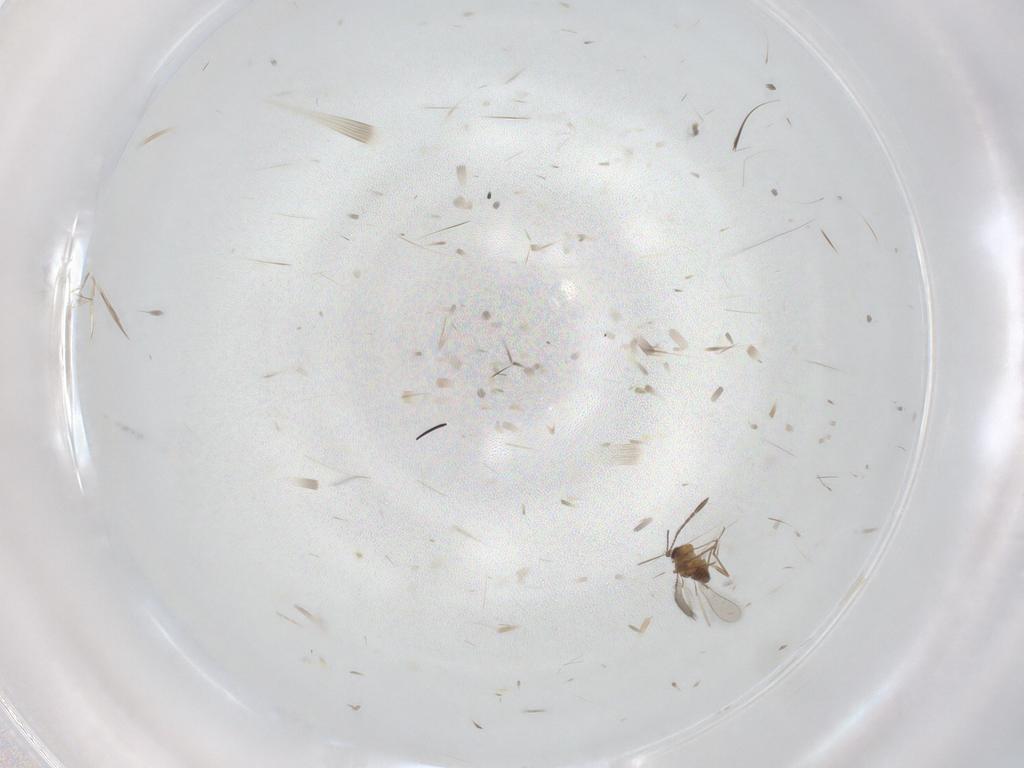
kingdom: Animalia
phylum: Arthropoda
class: Insecta
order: Hymenoptera
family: Mymaridae
